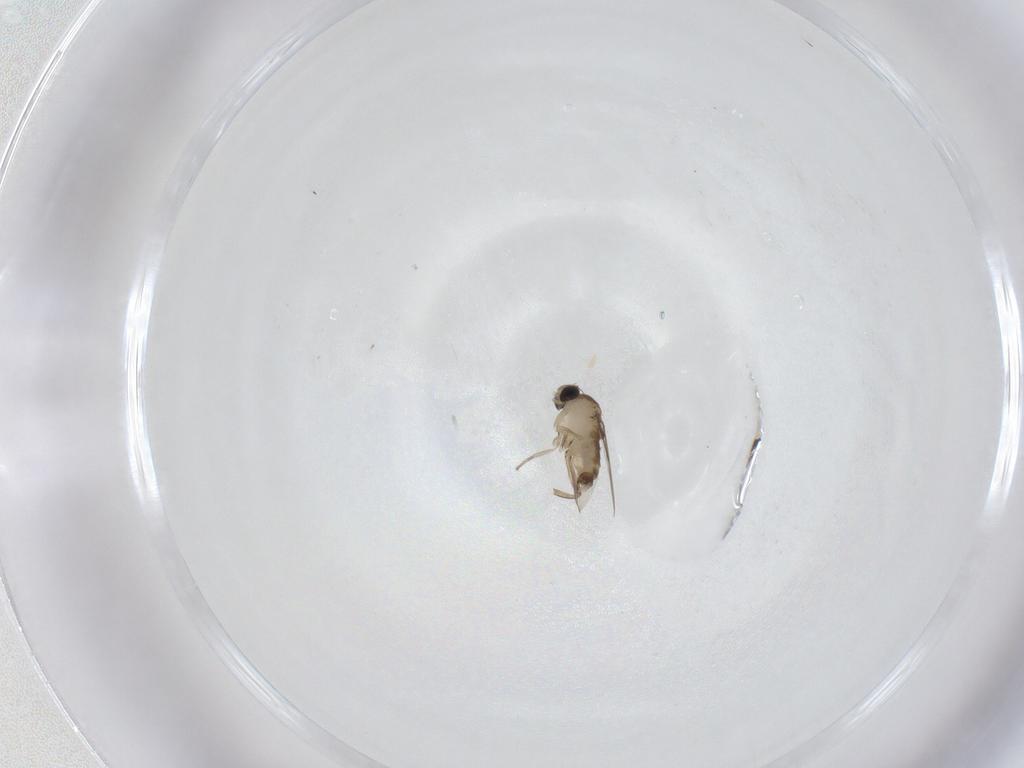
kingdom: Animalia
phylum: Arthropoda
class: Insecta
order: Diptera
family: Phoridae
